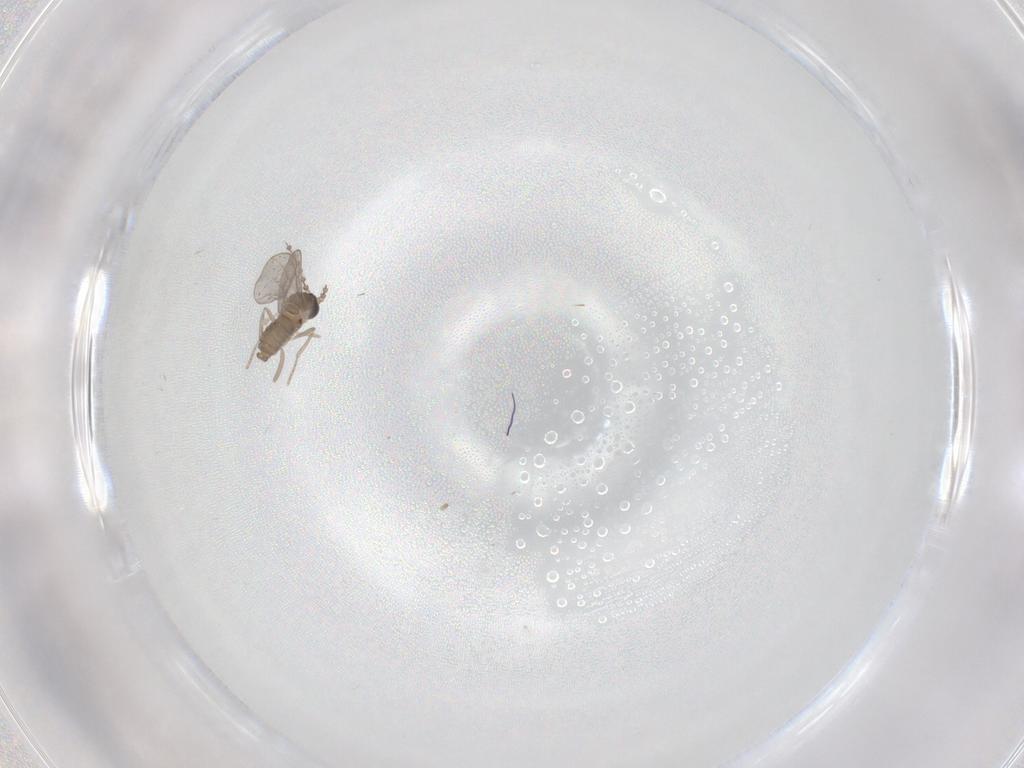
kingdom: Animalia
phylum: Arthropoda
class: Insecta
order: Diptera
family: Cecidomyiidae
